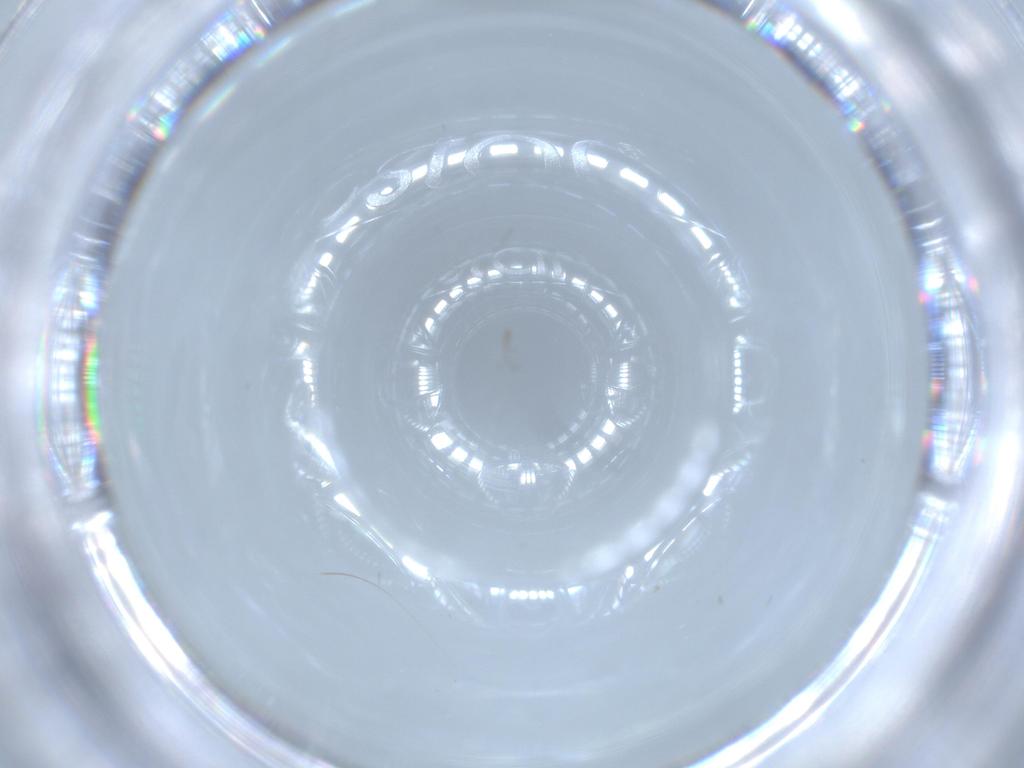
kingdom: Animalia
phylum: Arthropoda
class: Insecta
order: Diptera
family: Sciaridae
